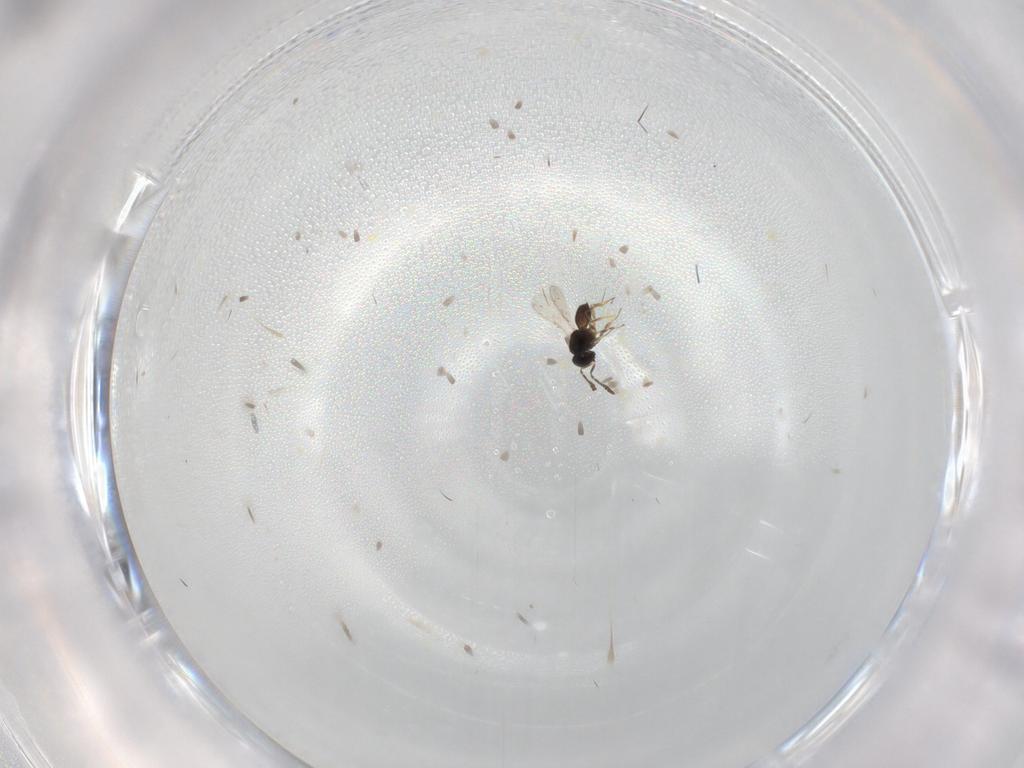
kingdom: Animalia
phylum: Arthropoda
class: Insecta
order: Hymenoptera
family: Scelionidae
